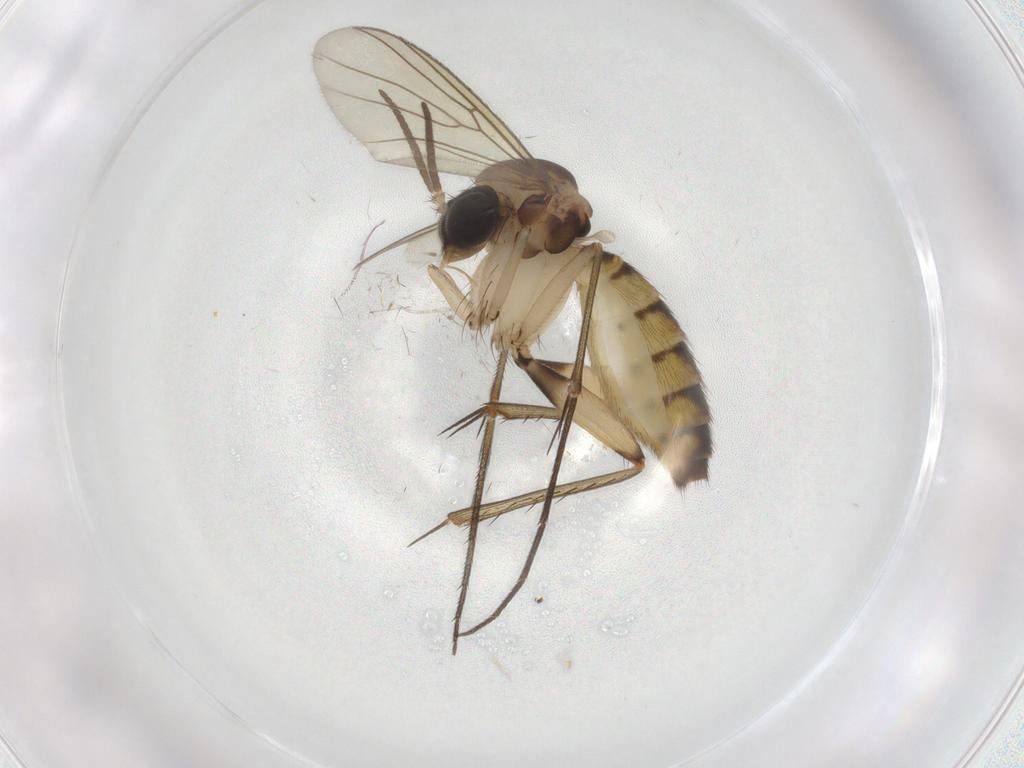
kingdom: Animalia
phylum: Arthropoda
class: Insecta
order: Diptera
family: Cecidomyiidae
